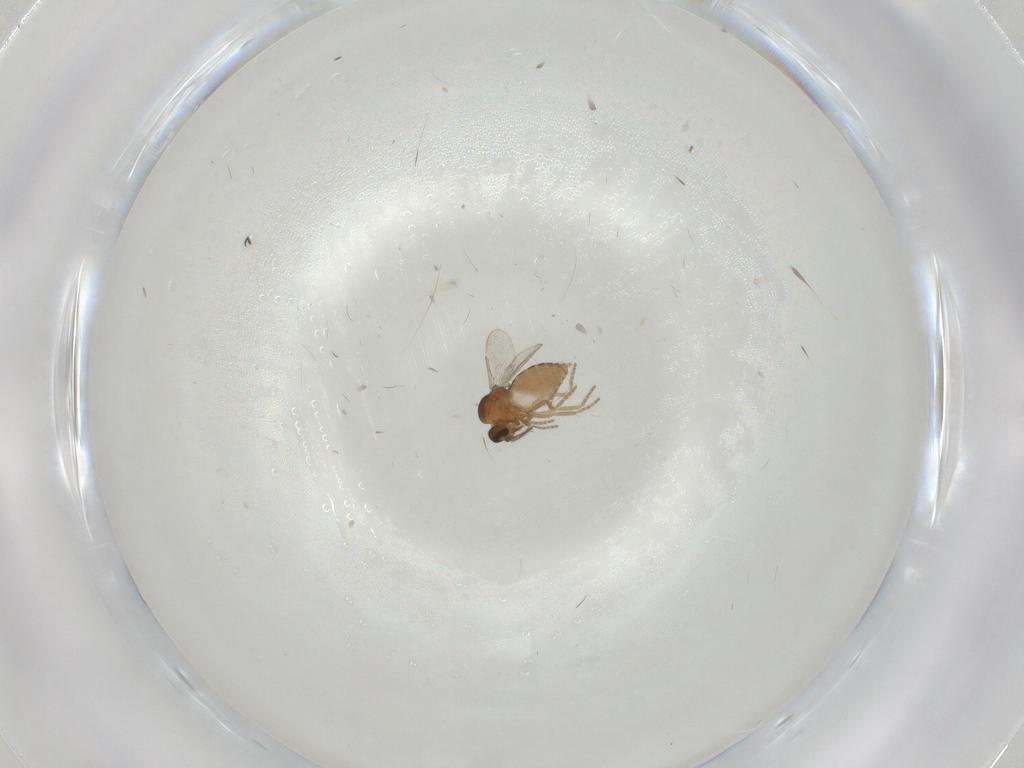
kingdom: Animalia
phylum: Arthropoda
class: Insecta
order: Diptera
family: Ceratopogonidae
